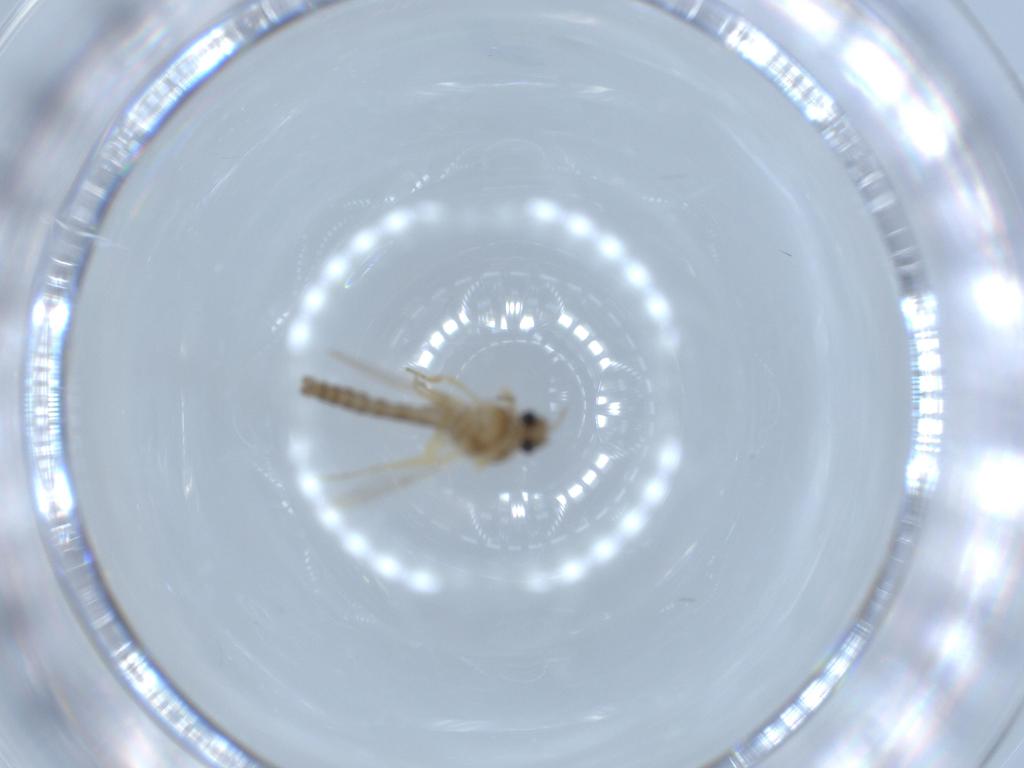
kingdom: Animalia
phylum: Arthropoda
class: Insecta
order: Diptera
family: Ceratopogonidae
